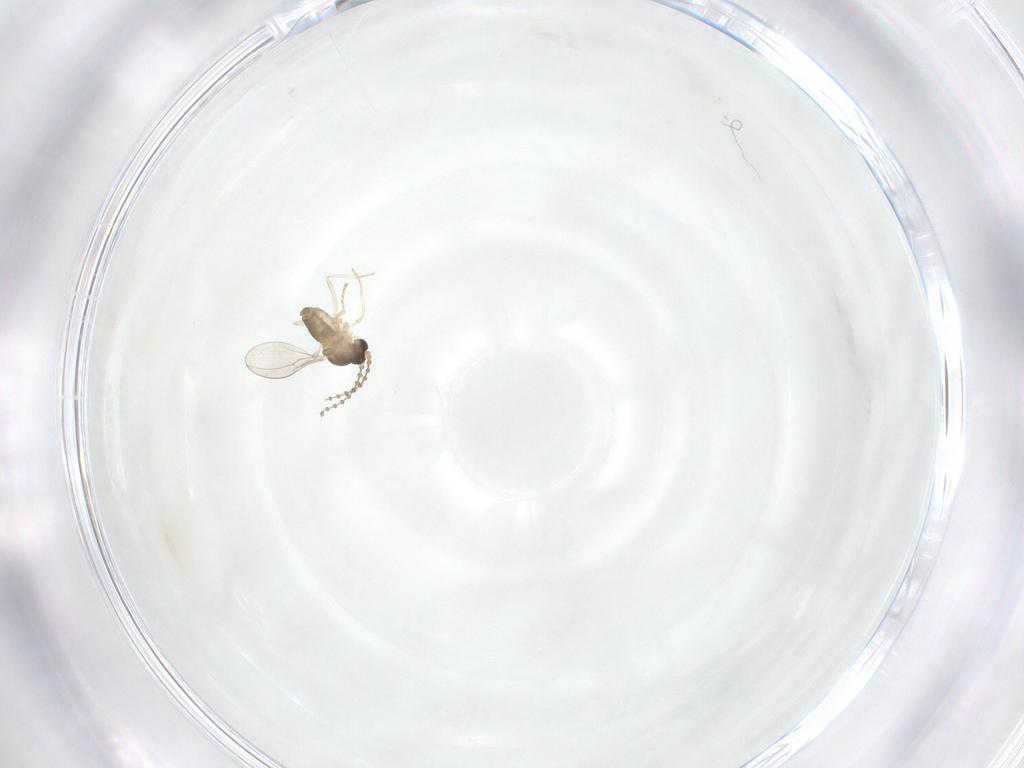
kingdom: Animalia
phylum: Arthropoda
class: Insecta
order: Diptera
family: Cecidomyiidae
